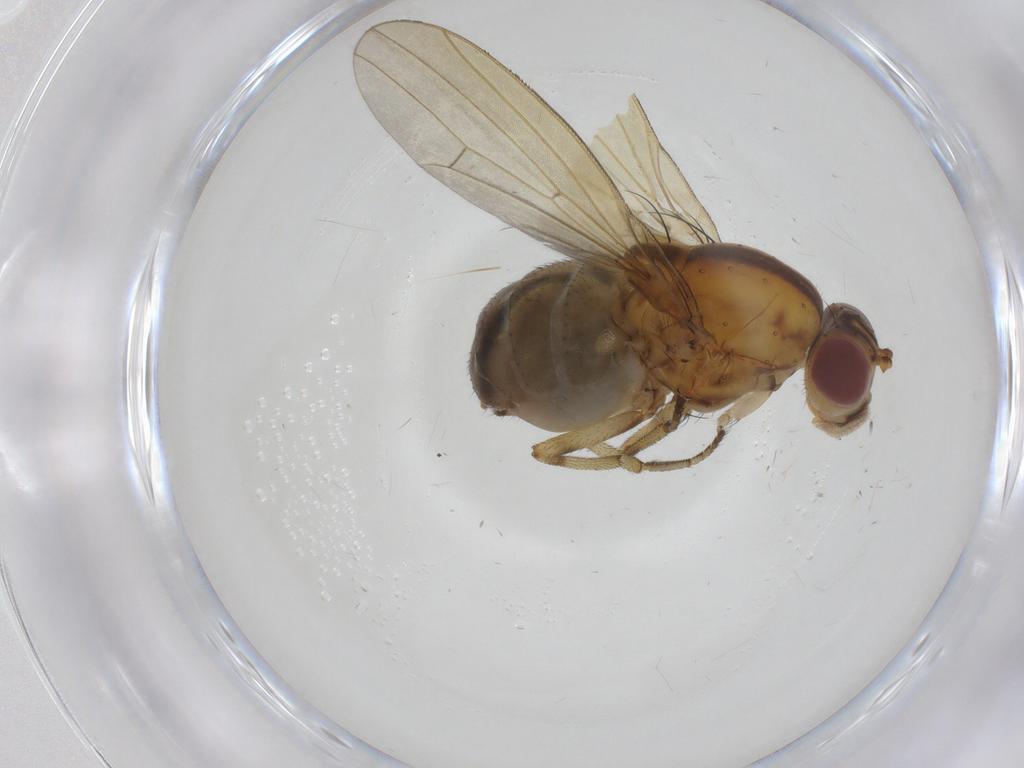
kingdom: Animalia
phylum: Arthropoda
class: Insecta
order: Diptera
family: Lauxaniidae
